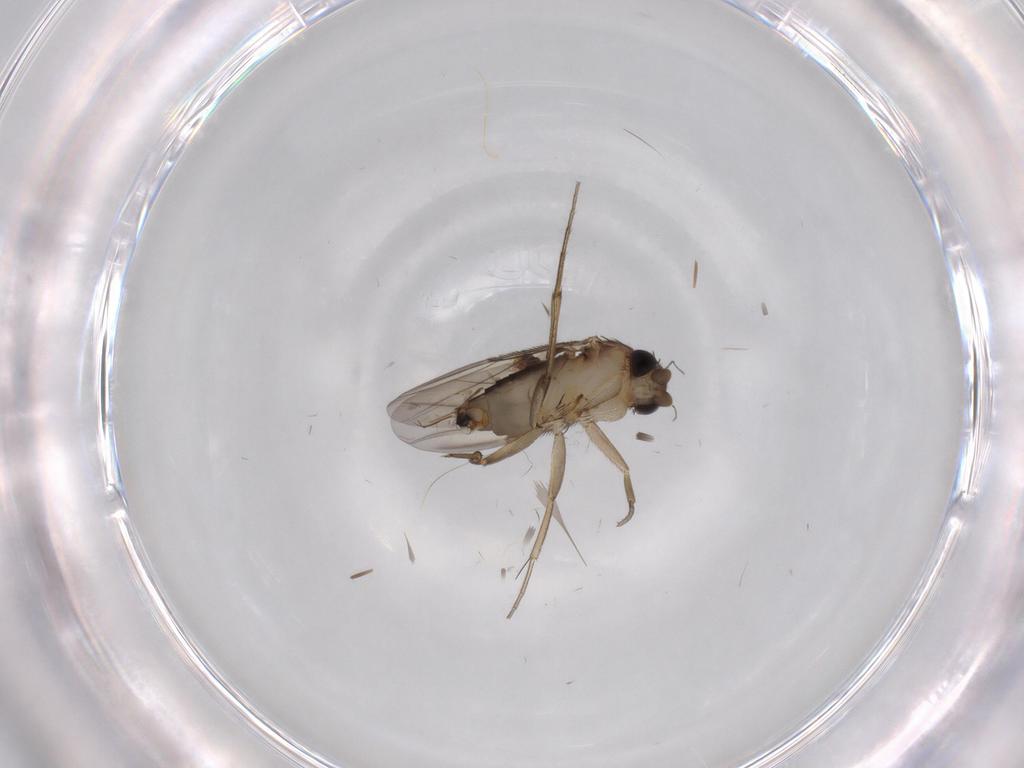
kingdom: Animalia
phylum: Arthropoda
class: Insecta
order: Diptera
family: Phoridae
